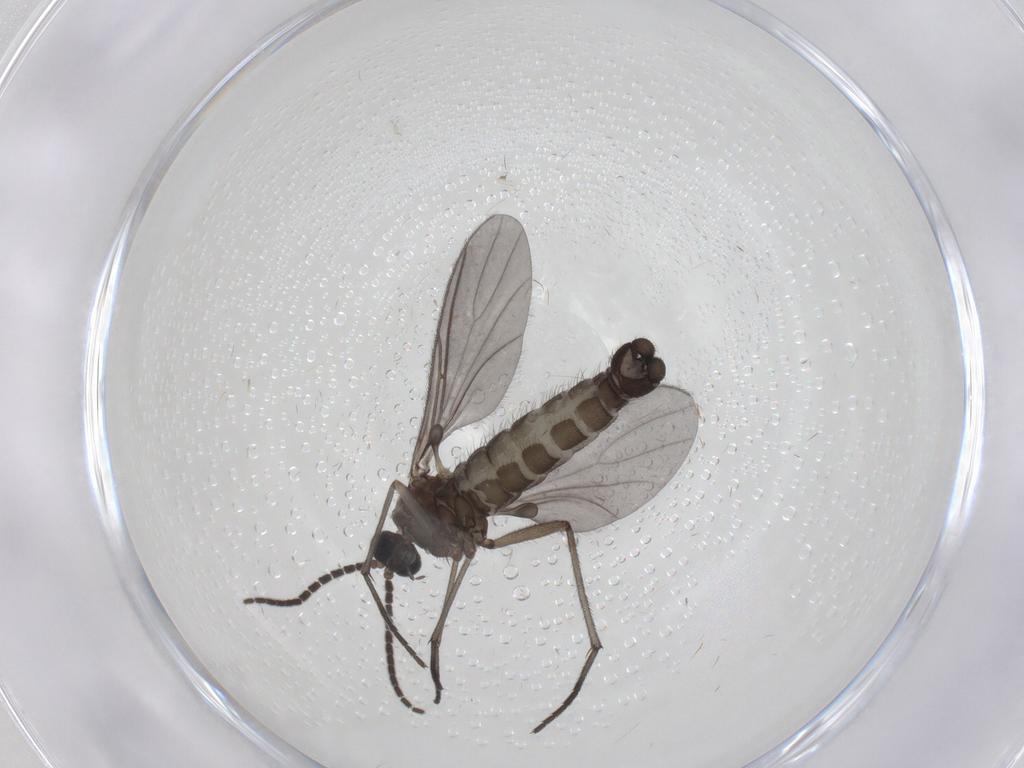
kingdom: Animalia
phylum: Arthropoda
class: Insecta
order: Diptera
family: Sciaridae
